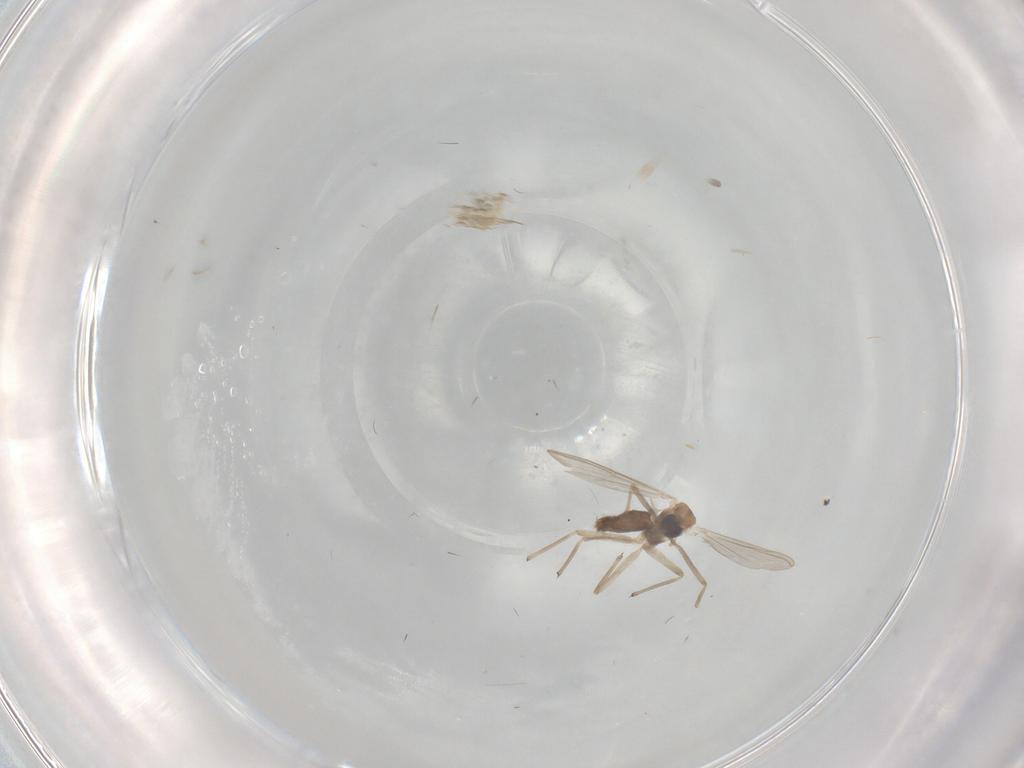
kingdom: Animalia
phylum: Arthropoda
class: Insecta
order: Diptera
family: Chironomidae
